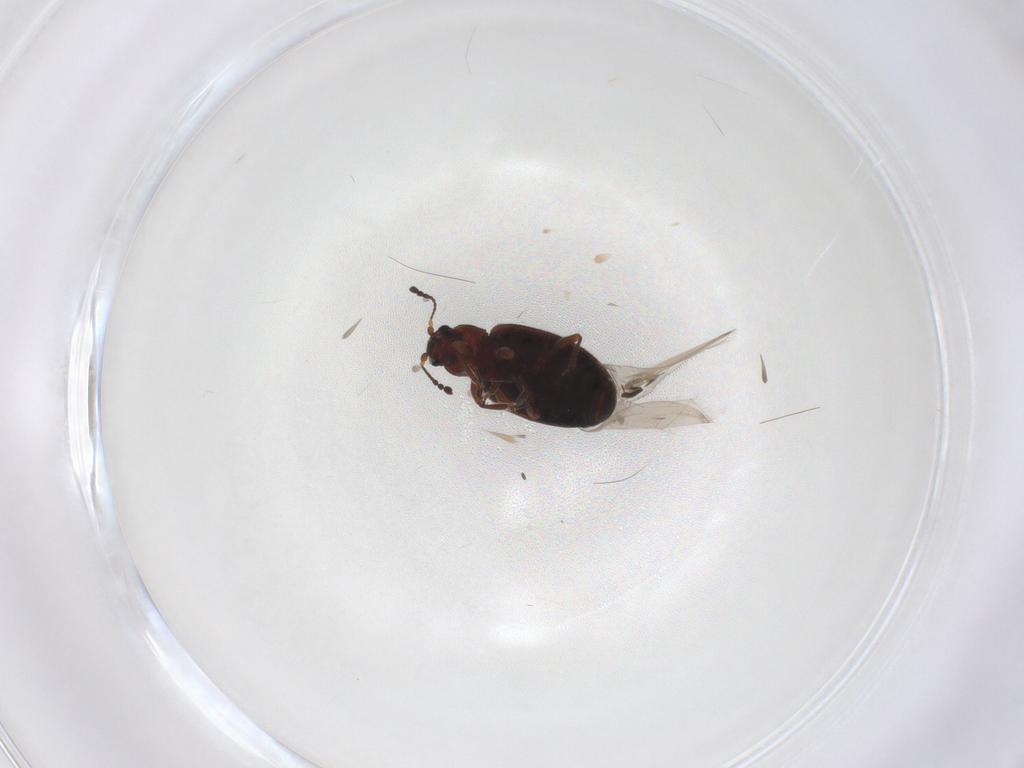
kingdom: Animalia
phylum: Arthropoda
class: Insecta
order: Coleoptera
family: Latridiidae
